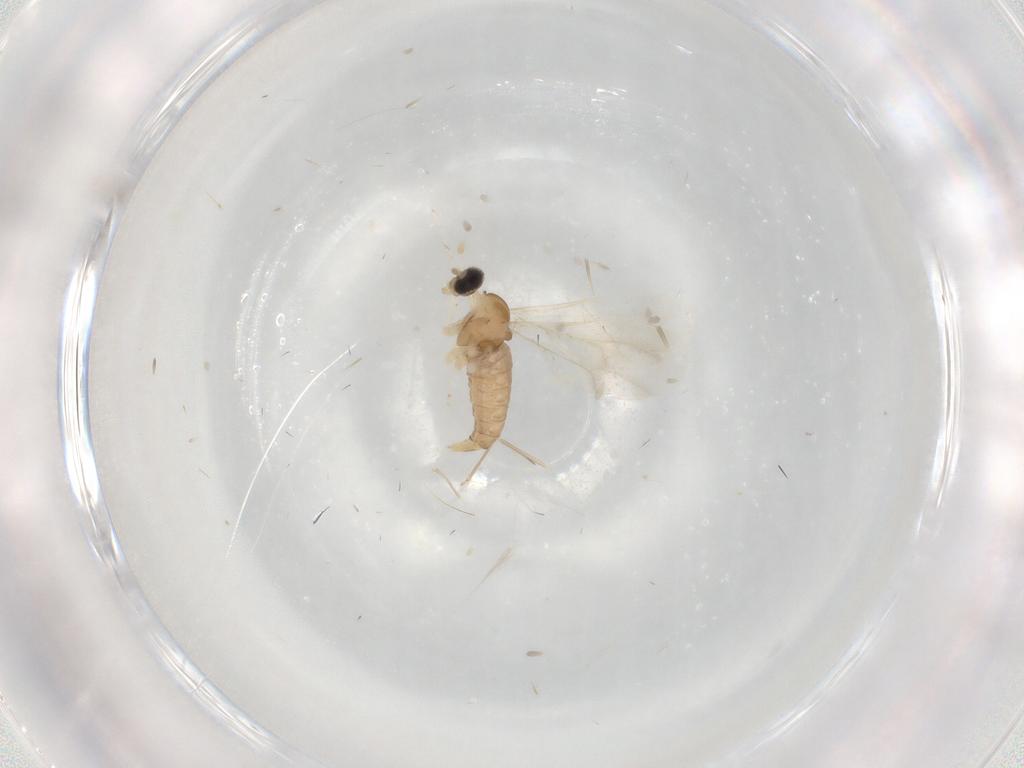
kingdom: Animalia
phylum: Arthropoda
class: Insecta
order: Diptera
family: Cecidomyiidae
